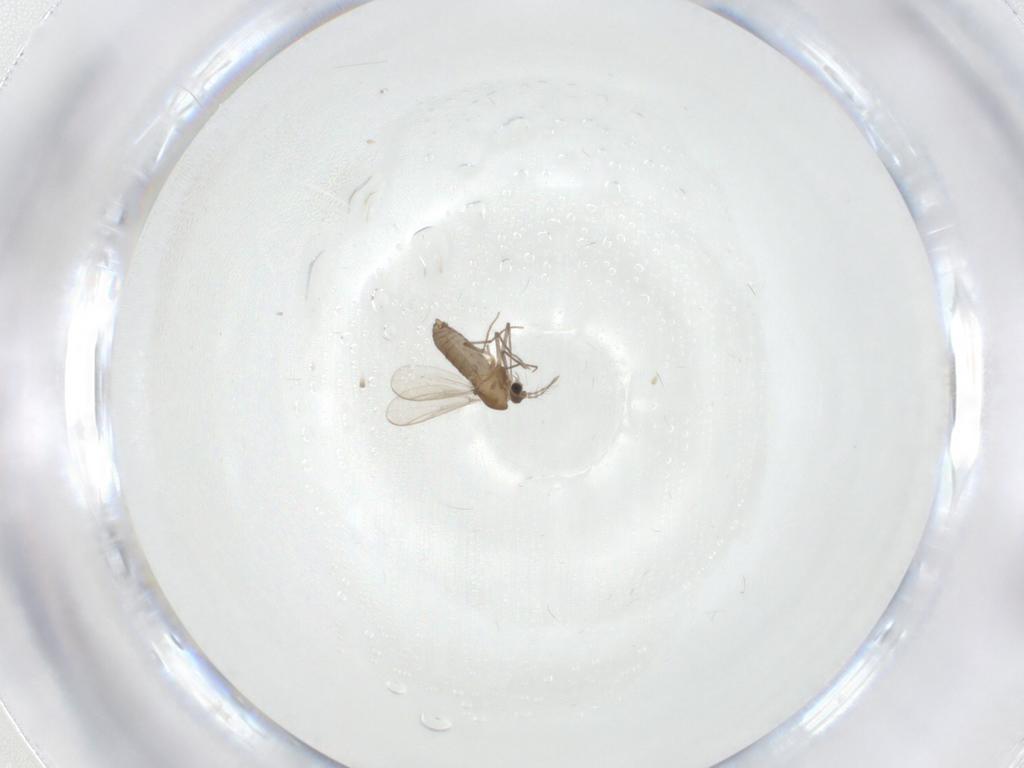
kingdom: Animalia
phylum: Arthropoda
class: Insecta
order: Diptera
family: Chironomidae
